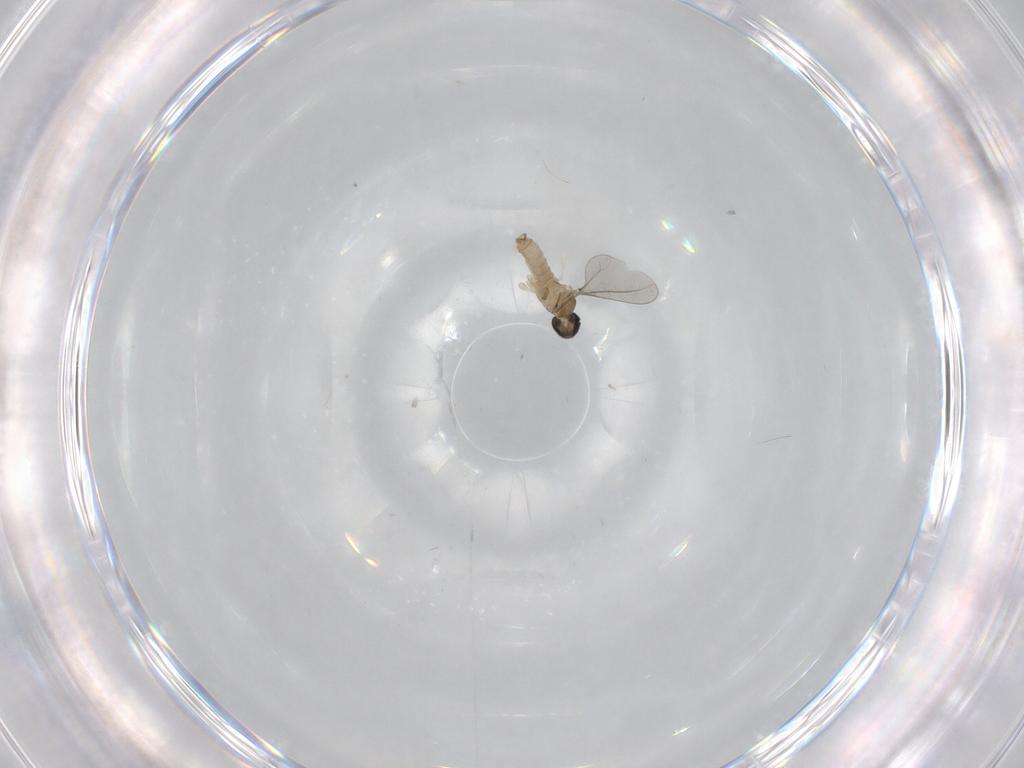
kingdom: Animalia
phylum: Arthropoda
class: Insecta
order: Diptera
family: Cecidomyiidae
